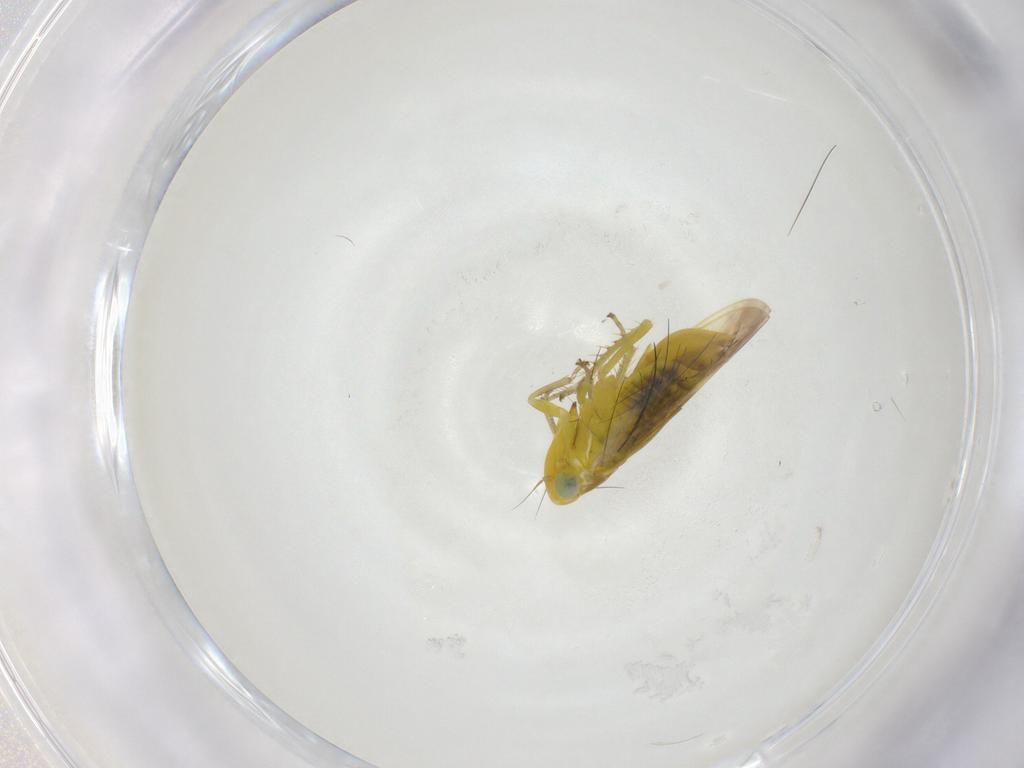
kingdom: Animalia
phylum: Arthropoda
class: Insecta
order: Hemiptera
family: Cicadellidae
